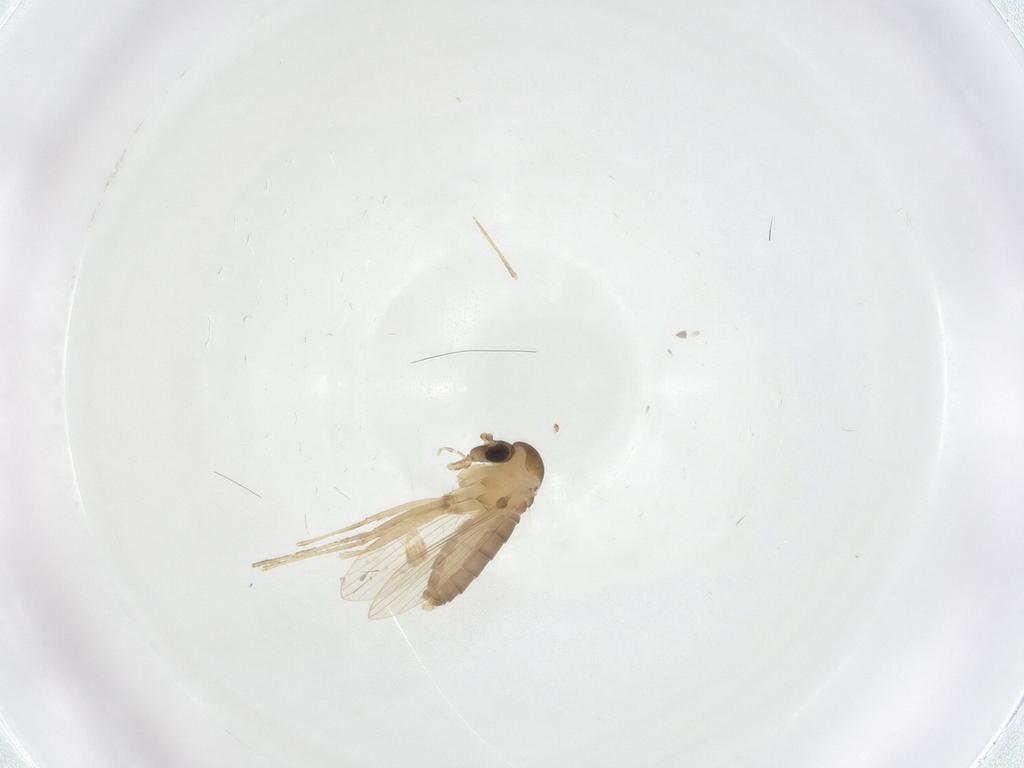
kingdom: Animalia
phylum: Arthropoda
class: Insecta
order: Diptera
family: Psychodidae
